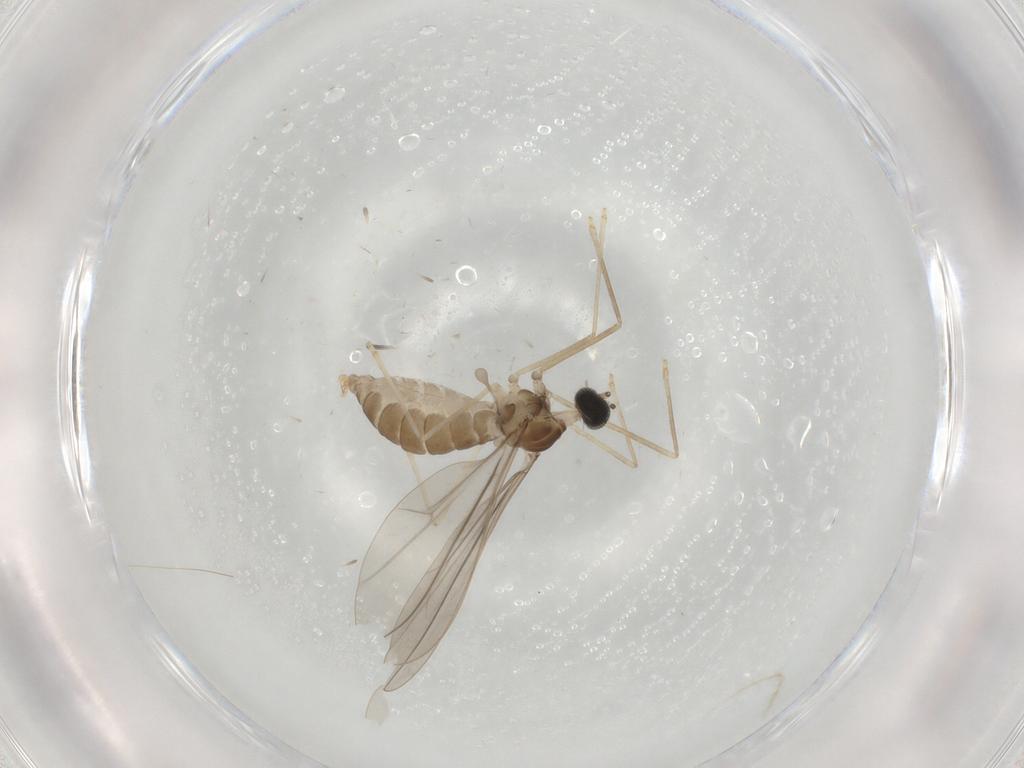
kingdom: Animalia
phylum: Arthropoda
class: Insecta
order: Diptera
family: Cecidomyiidae
